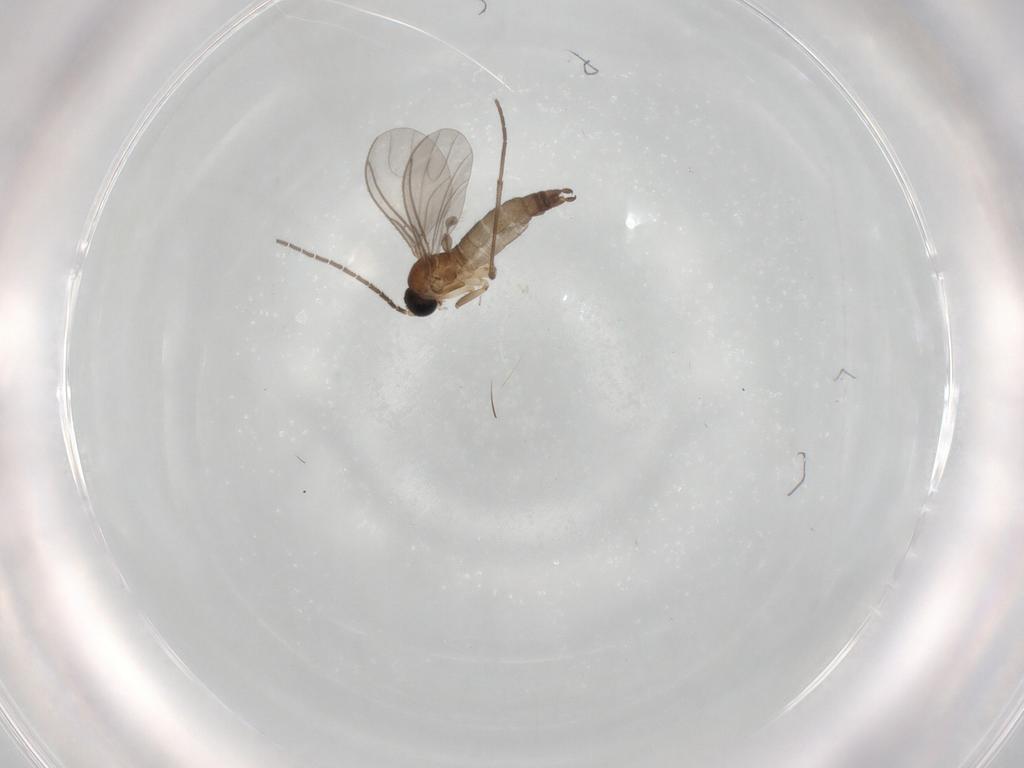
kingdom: Animalia
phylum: Arthropoda
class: Insecta
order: Diptera
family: Sciaridae
